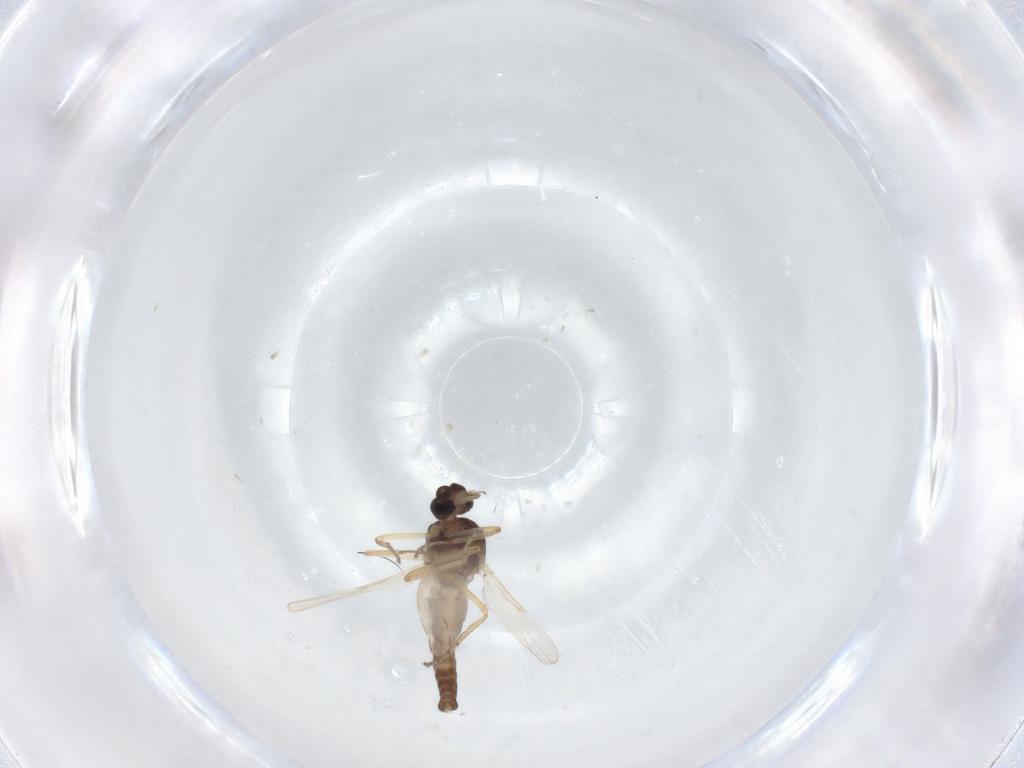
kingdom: Animalia
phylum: Arthropoda
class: Insecta
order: Diptera
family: Ceratopogonidae
